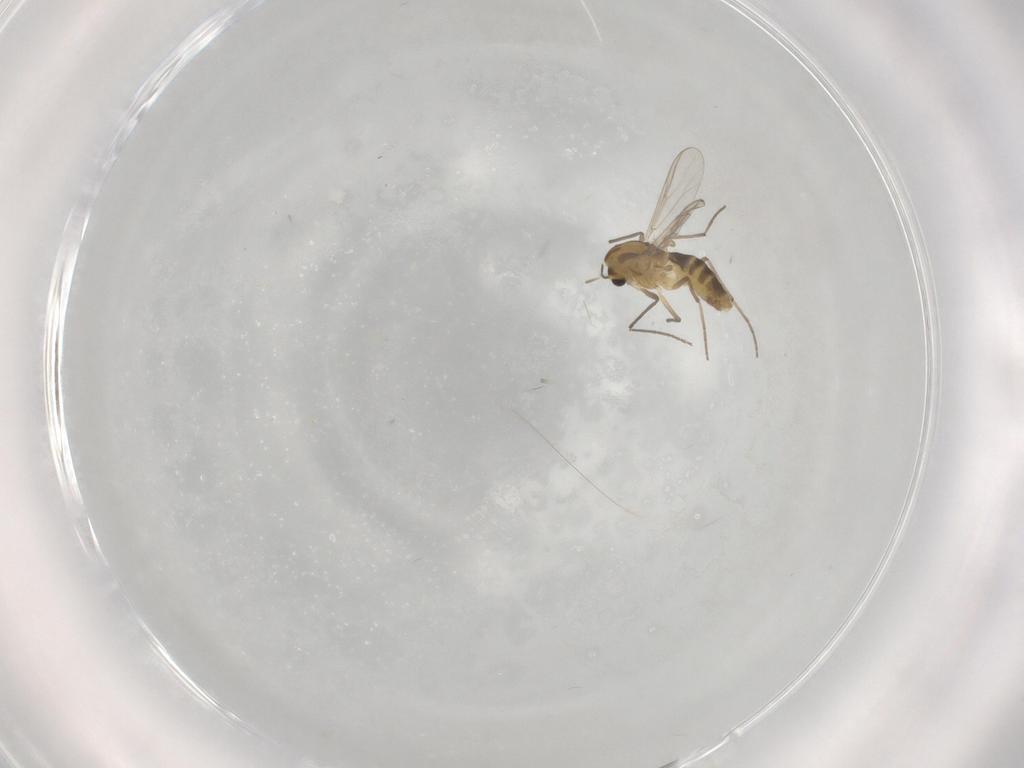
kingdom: Animalia
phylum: Arthropoda
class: Insecta
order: Diptera
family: Chironomidae
